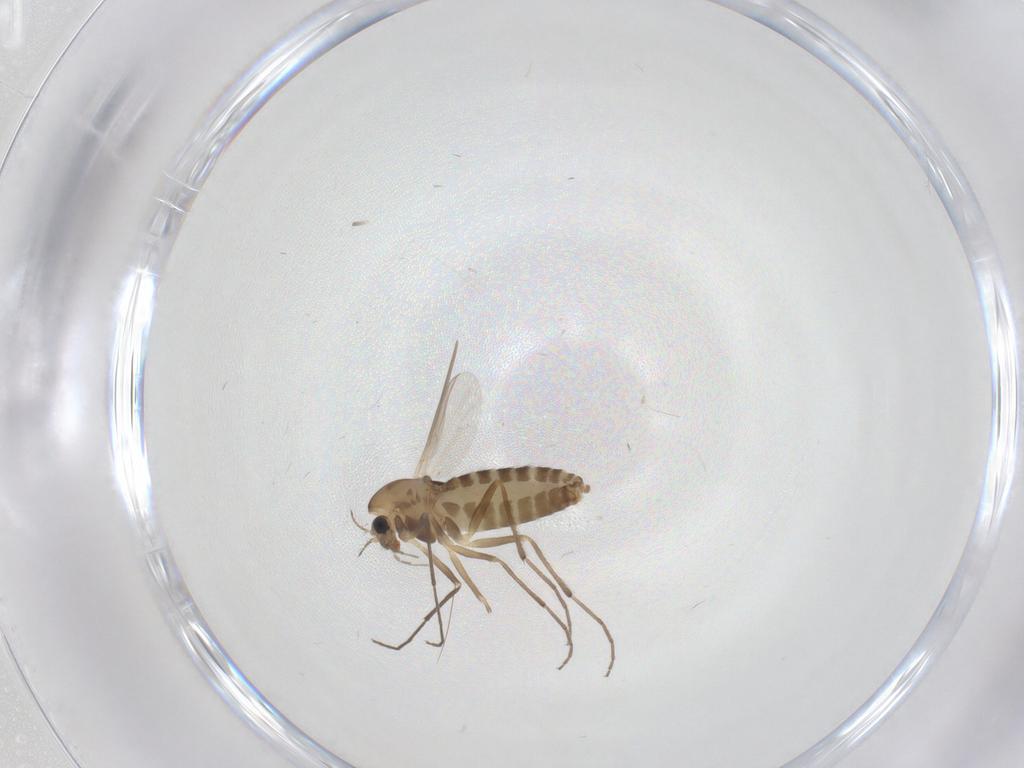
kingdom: Animalia
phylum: Arthropoda
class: Insecta
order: Diptera
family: Chironomidae
